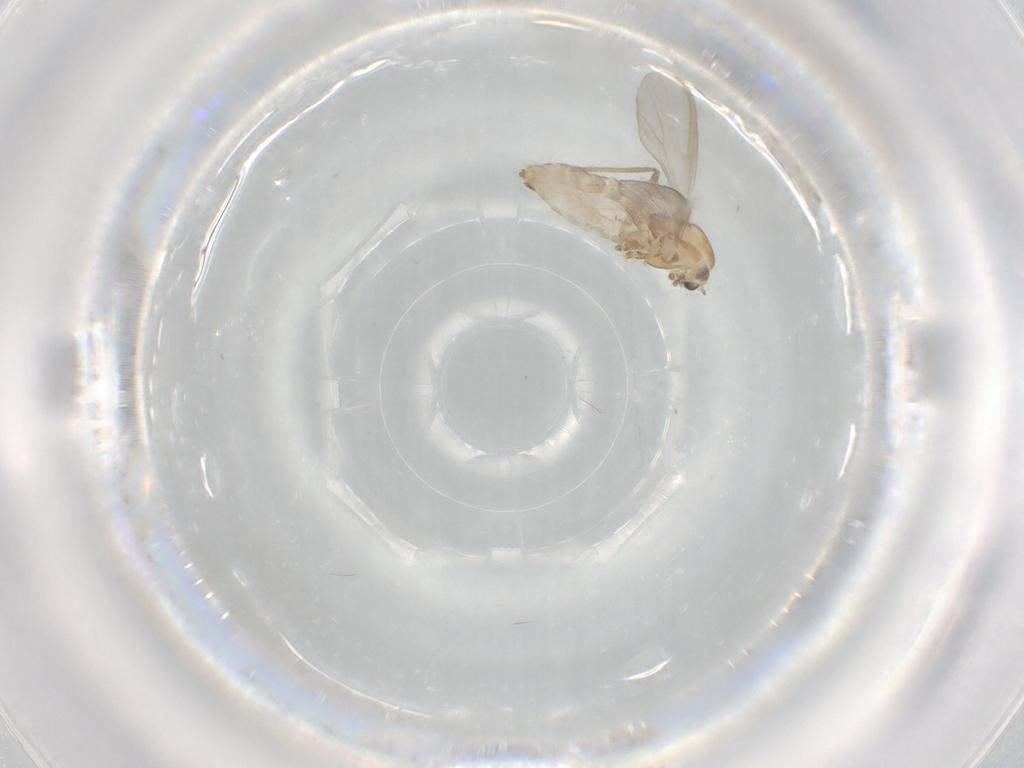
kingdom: Animalia
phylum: Arthropoda
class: Insecta
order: Diptera
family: Chironomidae
